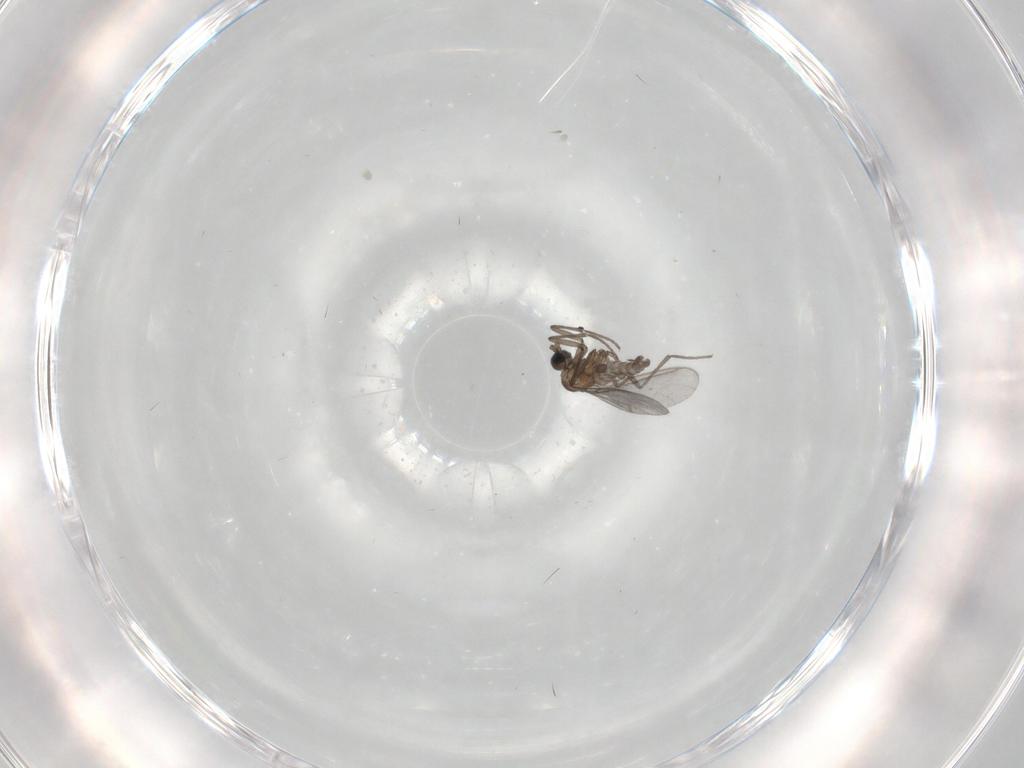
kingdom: Animalia
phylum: Arthropoda
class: Insecta
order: Diptera
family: Sciaridae
